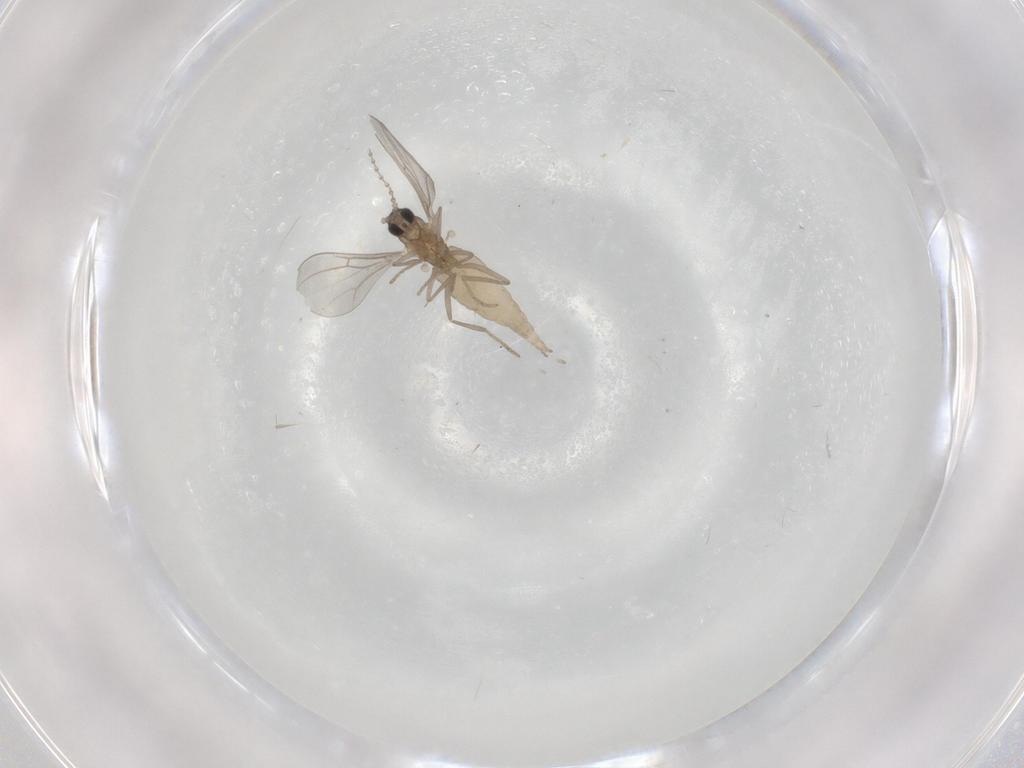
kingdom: Animalia
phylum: Arthropoda
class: Insecta
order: Diptera
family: Cecidomyiidae
